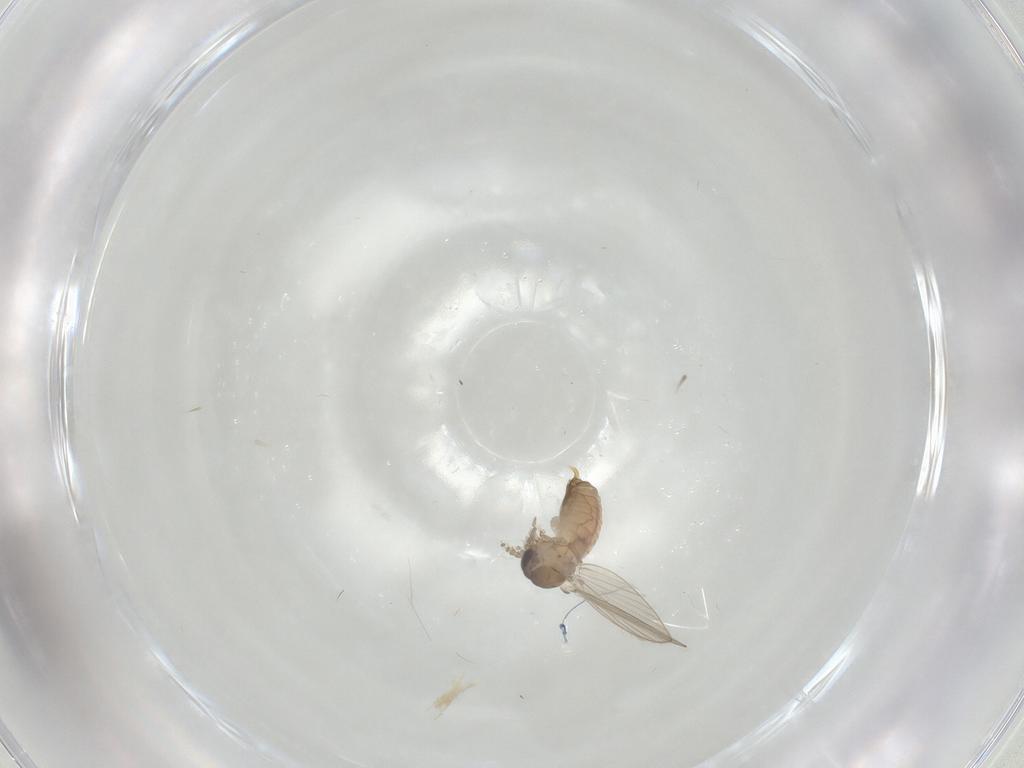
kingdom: Animalia
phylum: Arthropoda
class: Insecta
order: Diptera
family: Psychodidae
